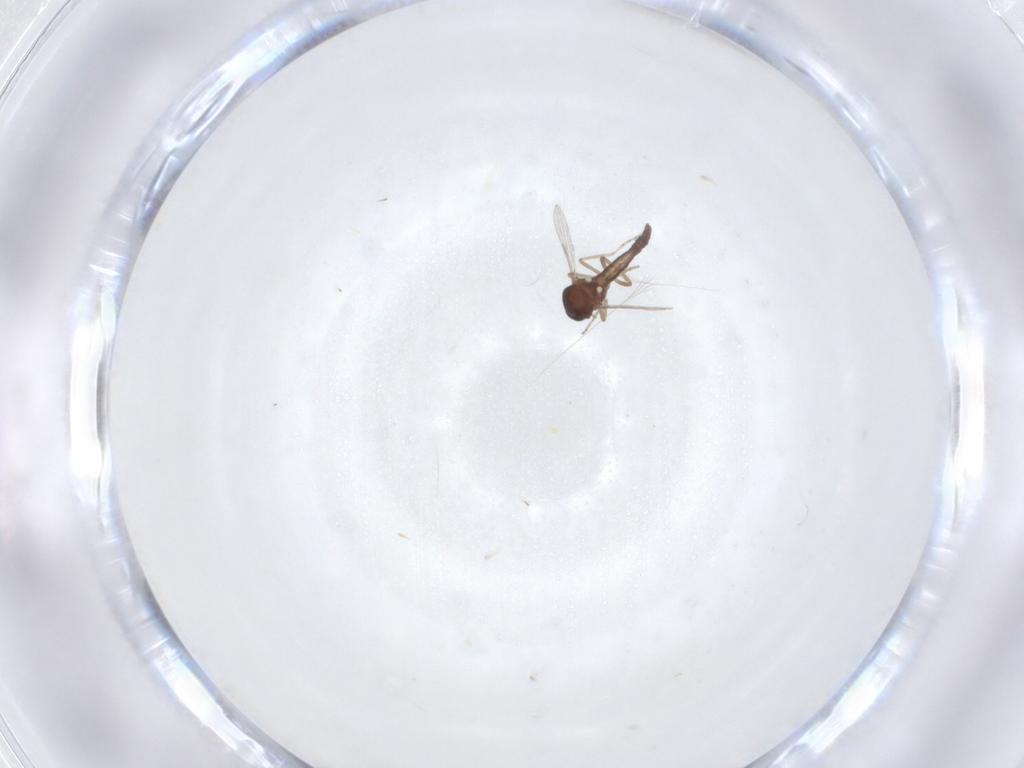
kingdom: Animalia
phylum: Arthropoda
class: Insecta
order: Diptera
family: Ceratopogonidae
